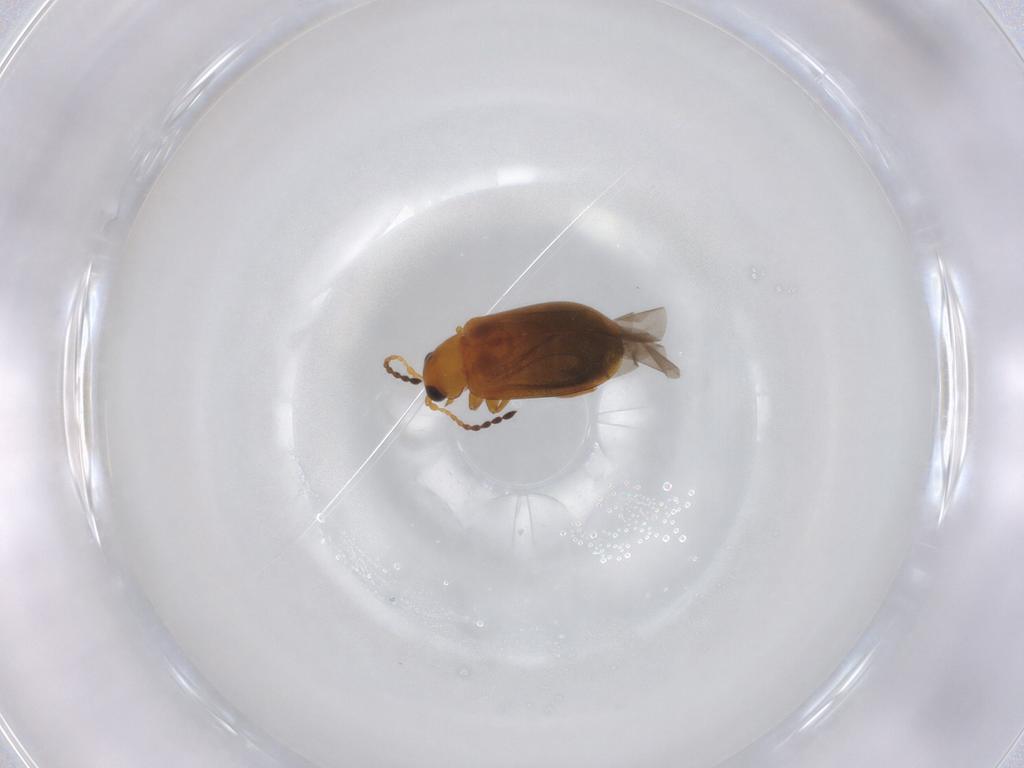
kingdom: Animalia
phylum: Arthropoda
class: Insecta
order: Coleoptera
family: Chrysomelidae
